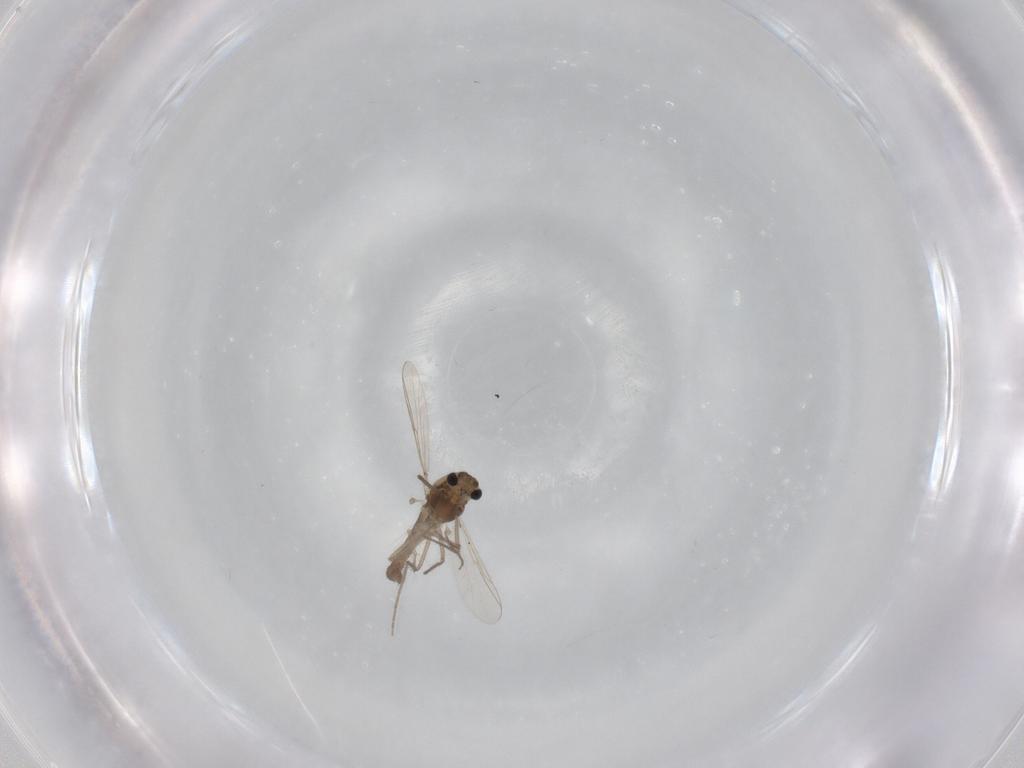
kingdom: Animalia
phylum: Arthropoda
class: Insecta
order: Diptera
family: Chironomidae
